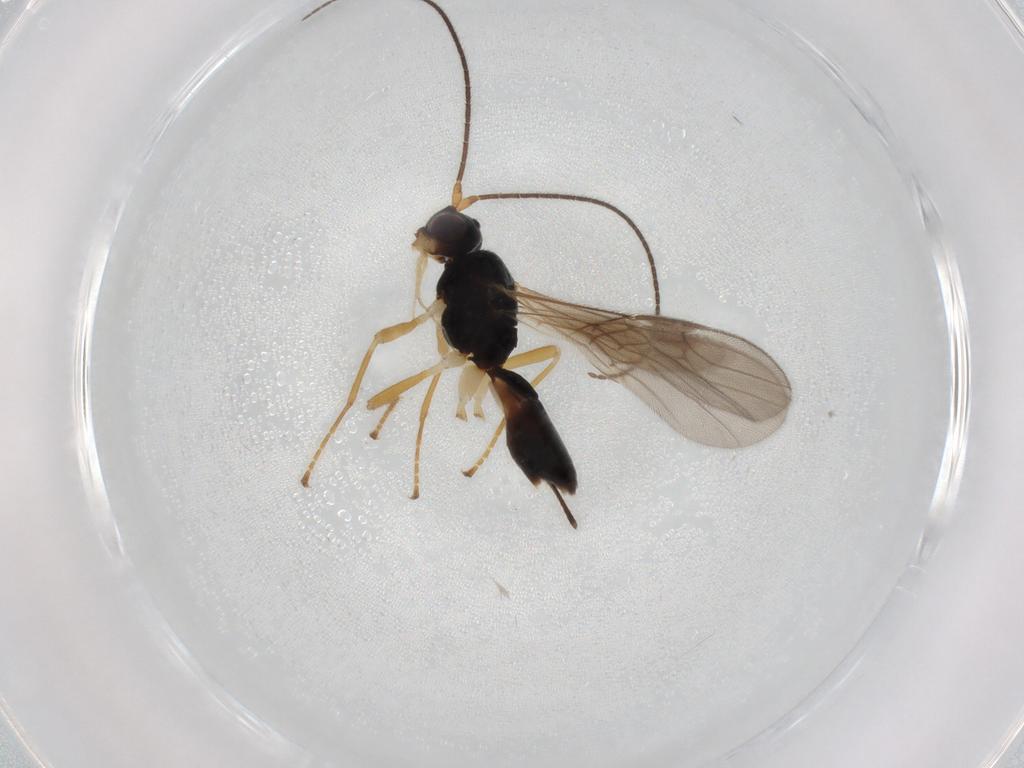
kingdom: Animalia
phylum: Arthropoda
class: Insecta
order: Hymenoptera
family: Braconidae
